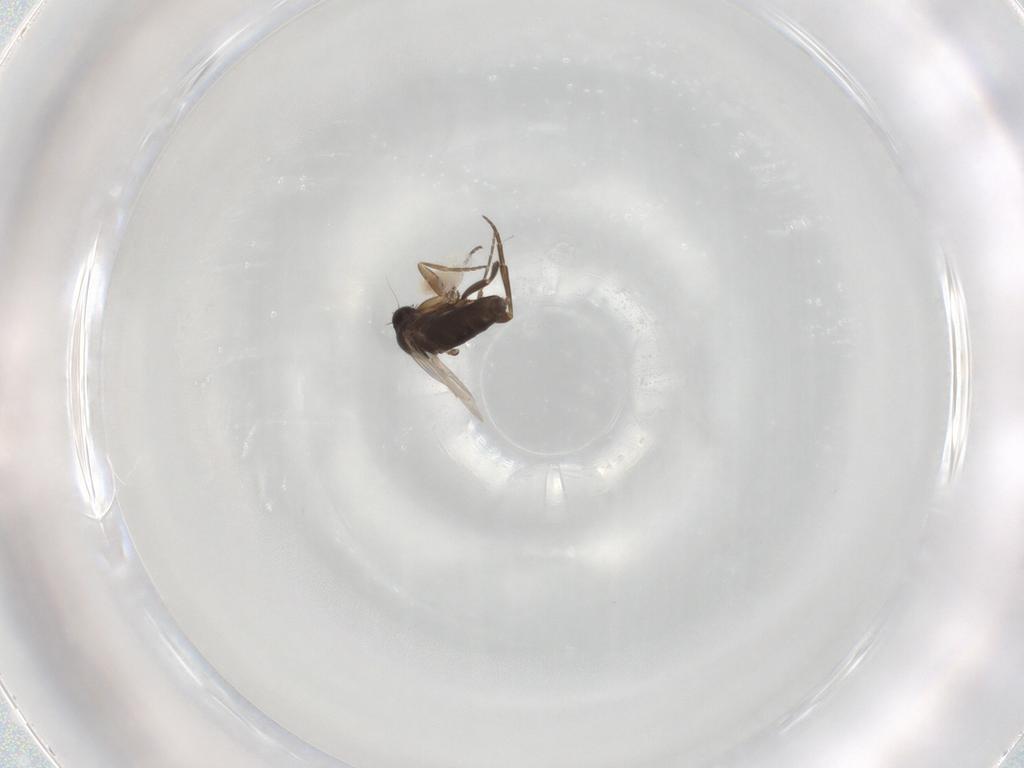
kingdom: Animalia
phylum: Arthropoda
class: Insecta
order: Diptera
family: Phoridae
